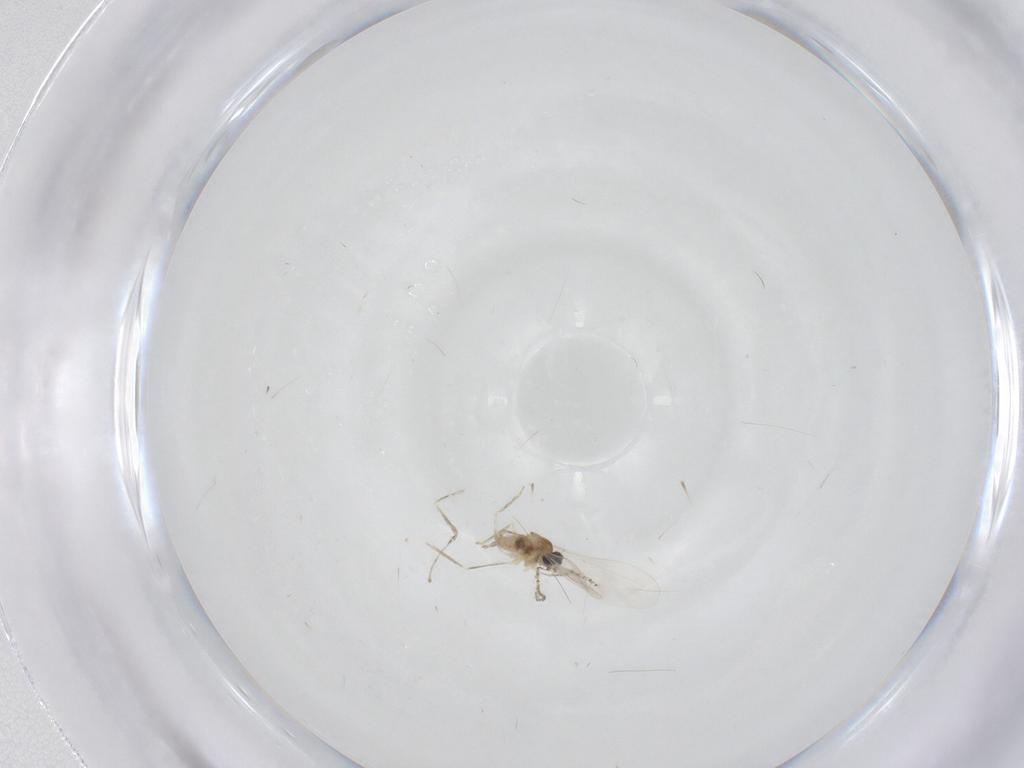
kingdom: Animalia
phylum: Arthropoda
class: Insecta
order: Diptera
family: Cecidomyiidae
